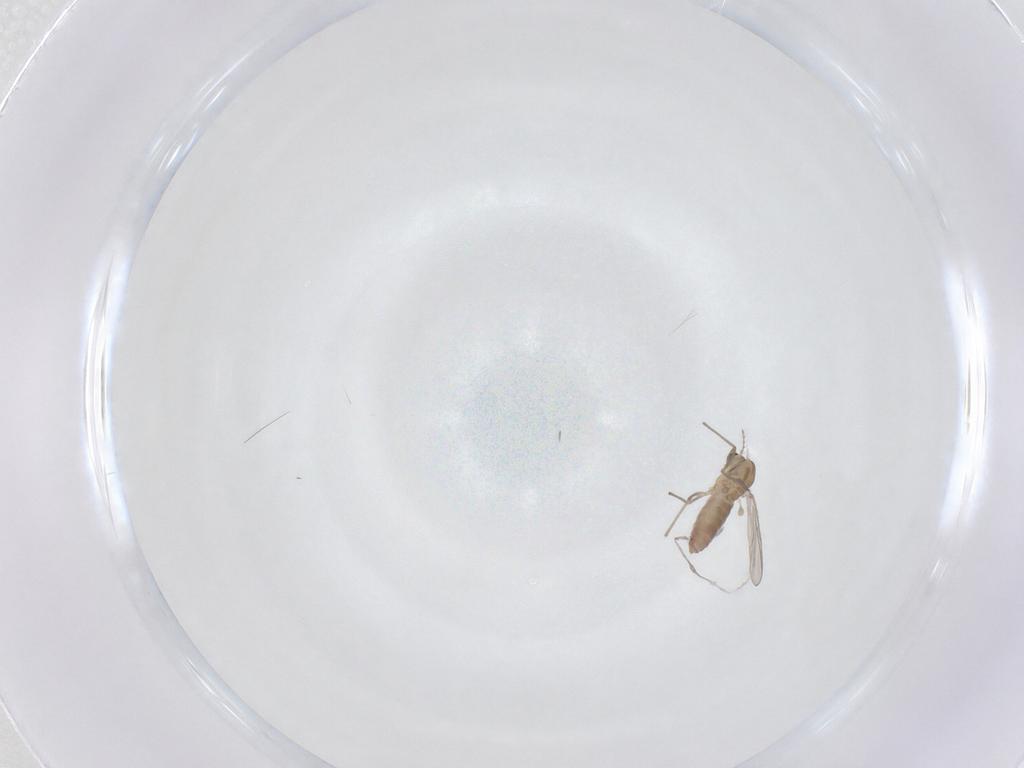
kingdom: Animalia
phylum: Arthropoda
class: Insecta
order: Diptera
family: Chironomidae
